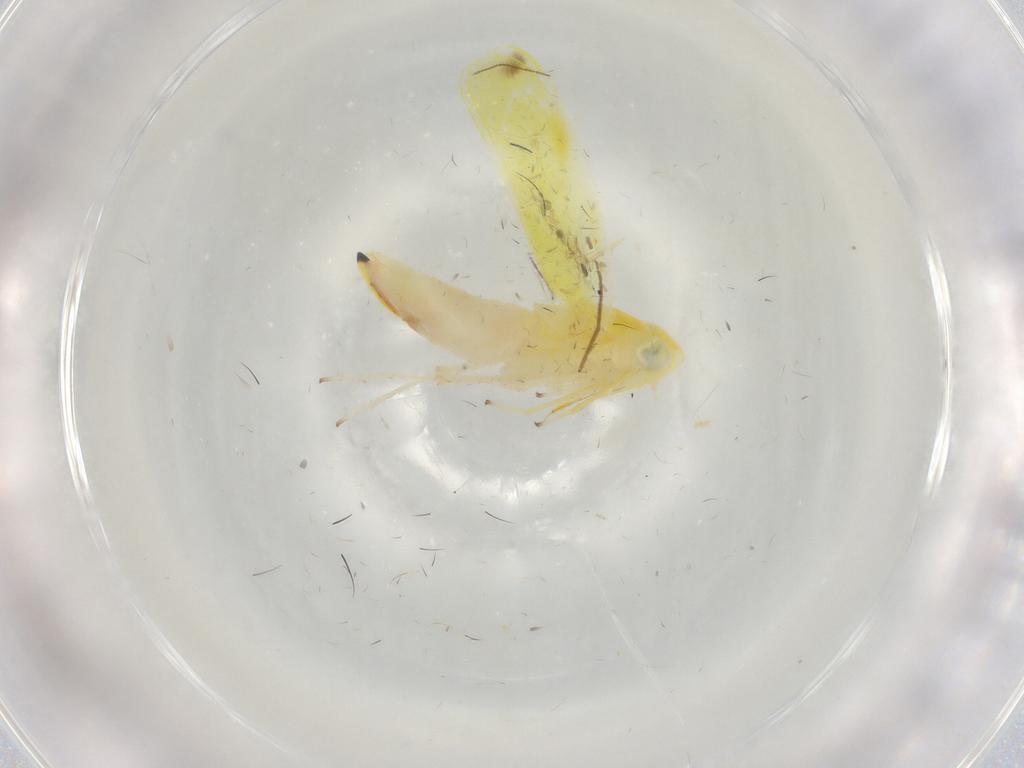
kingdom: Animalia
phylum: Arthropoda
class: Insecta
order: Hemiptera
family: Cicadellidae
